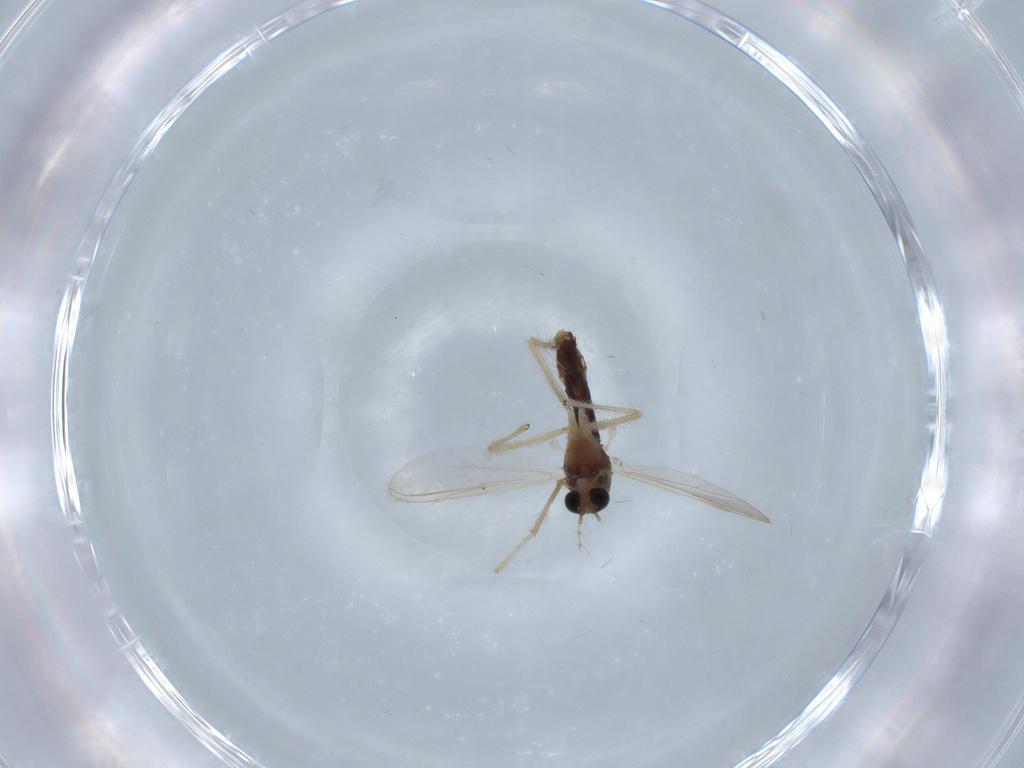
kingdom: Animalia
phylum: Arthropoda
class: Insecta
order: Diptera
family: Chironomidae
